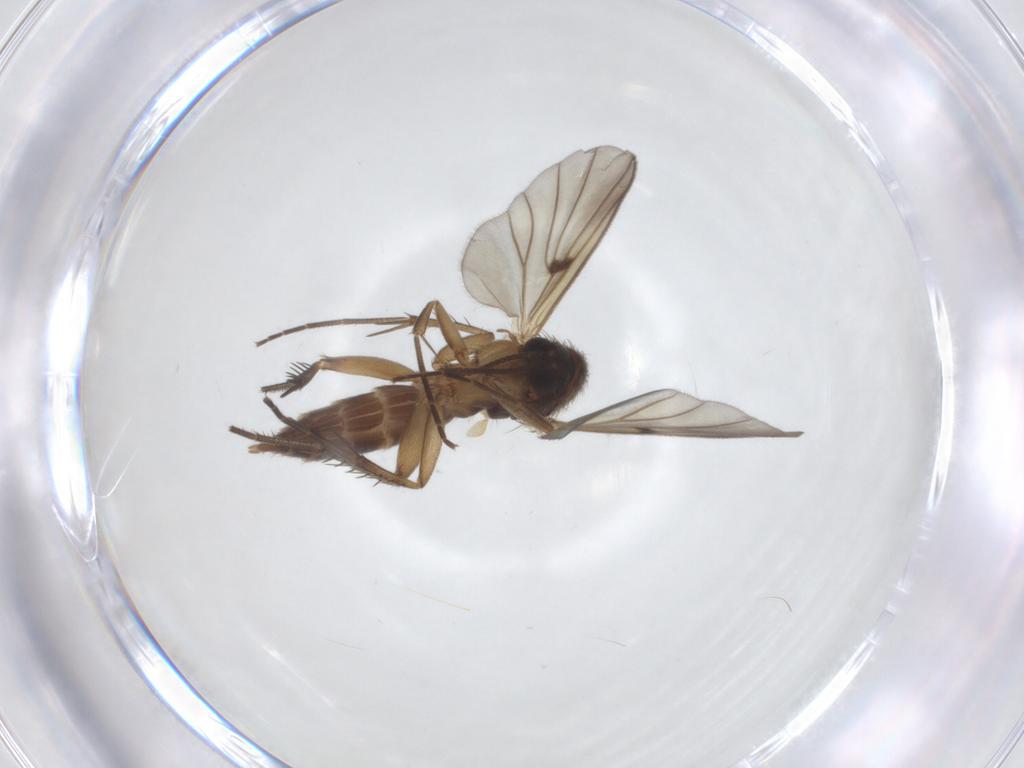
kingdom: Animalia
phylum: Arthropoda
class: Insecta
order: Diptera
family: Mycetophilidae
